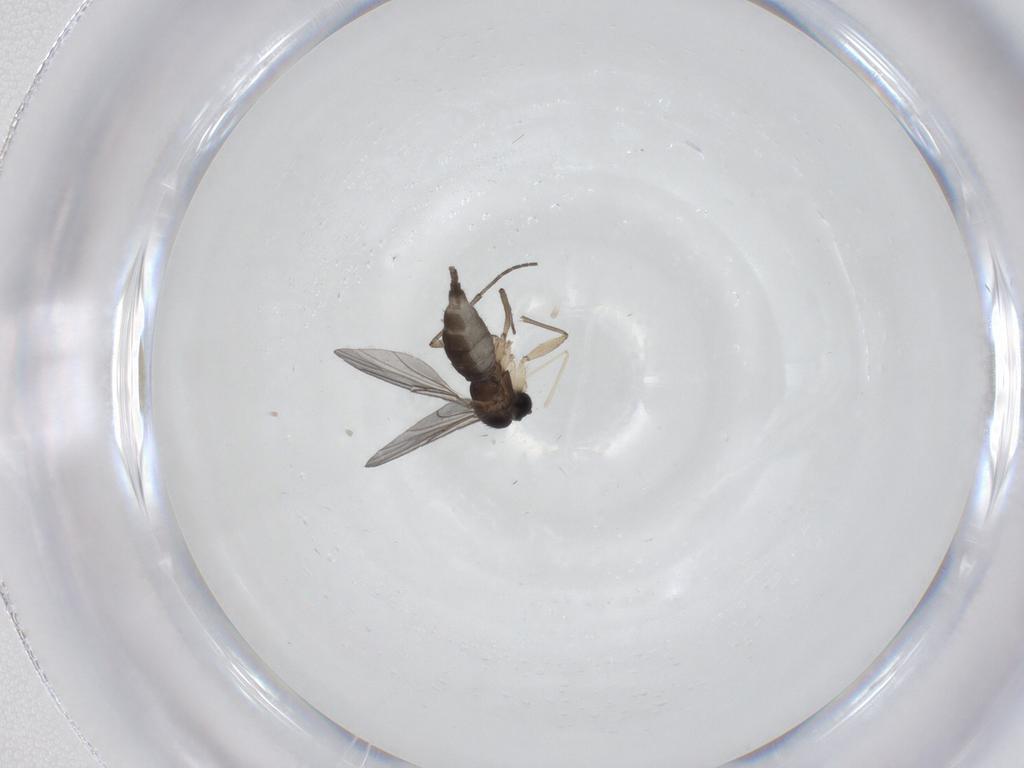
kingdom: Animalia
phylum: Arthropoda
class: Insecta
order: Diptera
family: Sciaridae
